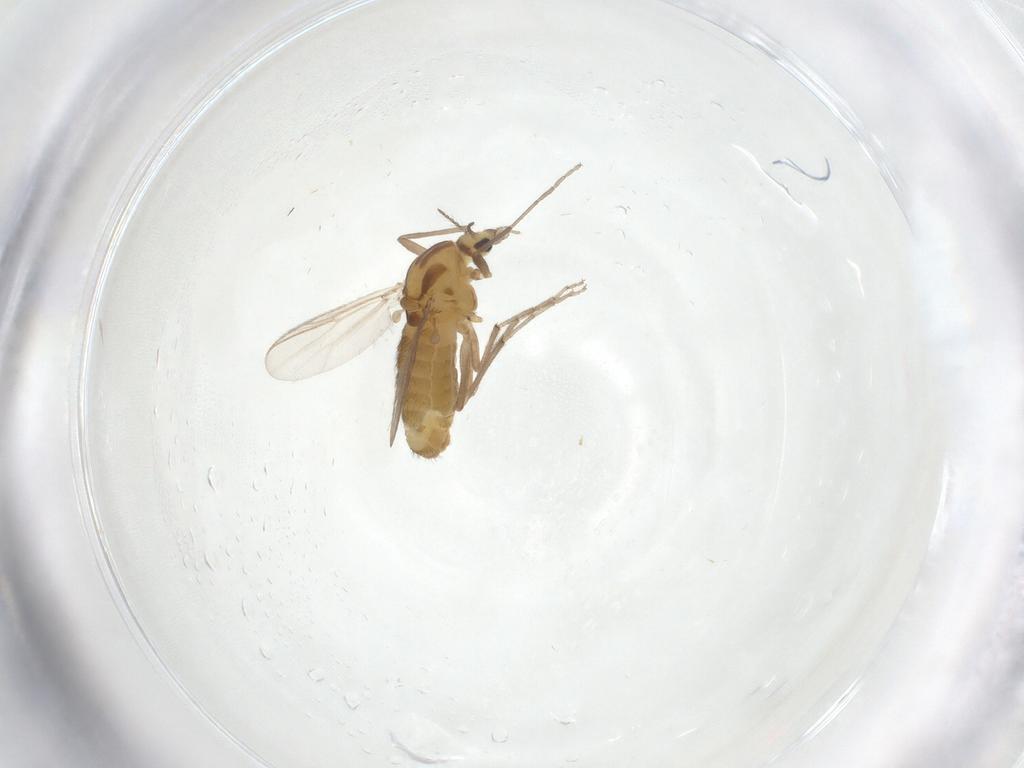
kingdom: Animalia
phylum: Arthropoda
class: Insecta
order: Diptera
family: Chironomidae
